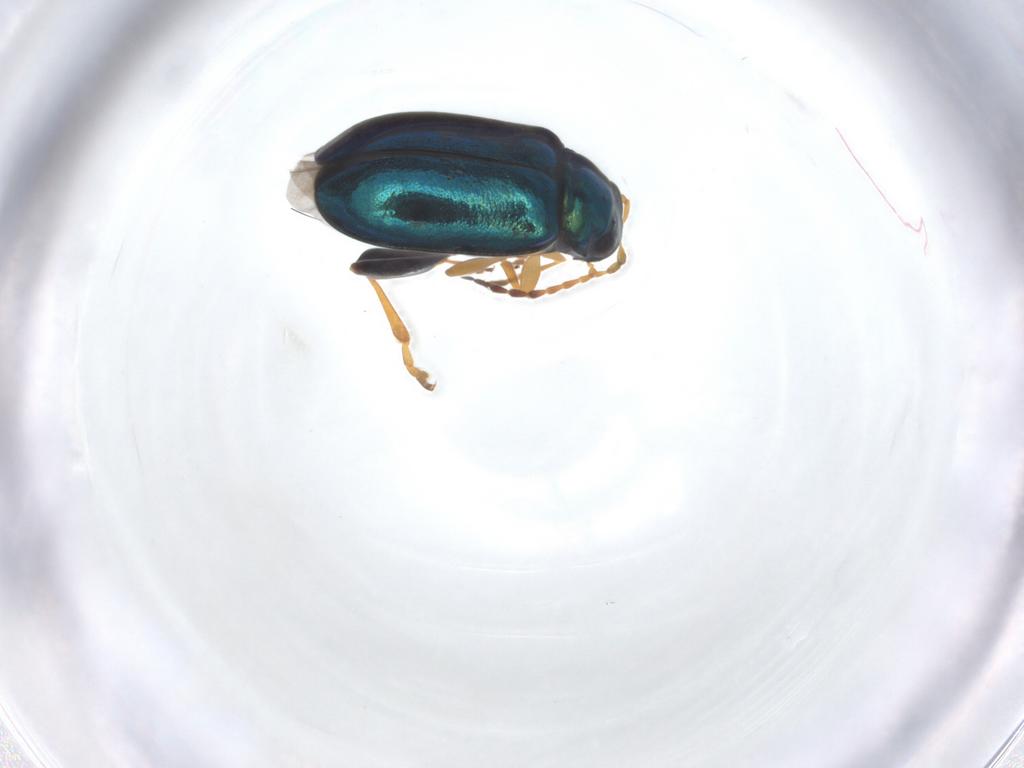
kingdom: Animalia
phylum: Arthropoda
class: Insecta
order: Coleoptera
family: Chrysomelidae
